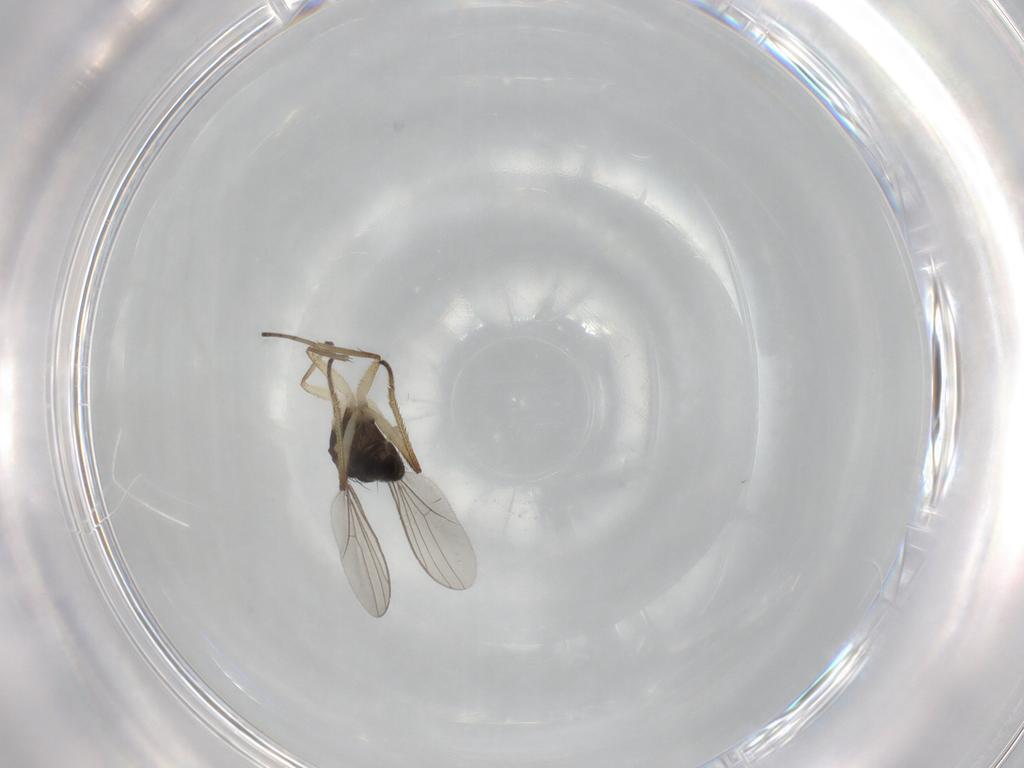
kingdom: Animalia
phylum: Arthropoda
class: Insecta
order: Diptera
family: Dolichopodidae
